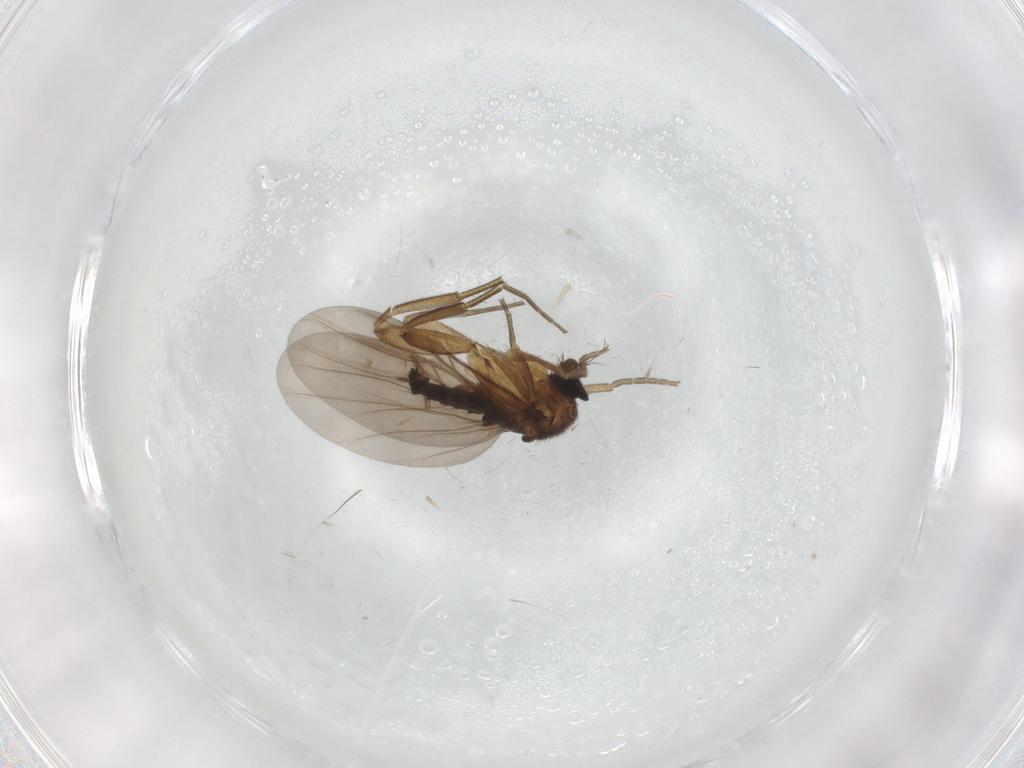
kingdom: Animalia
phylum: Arthropoda
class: Insecta
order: Diptera
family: Phoridae
